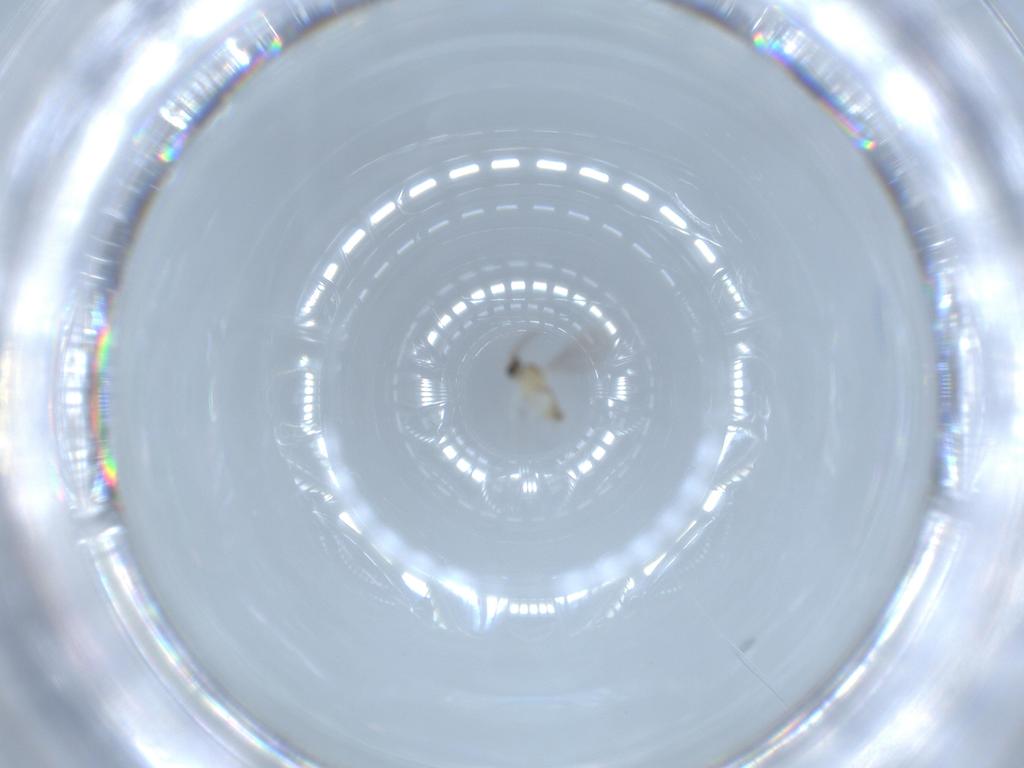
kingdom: Animalia
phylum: Arthropoda
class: Insecta
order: Diptera
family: Cecidomyiidae
